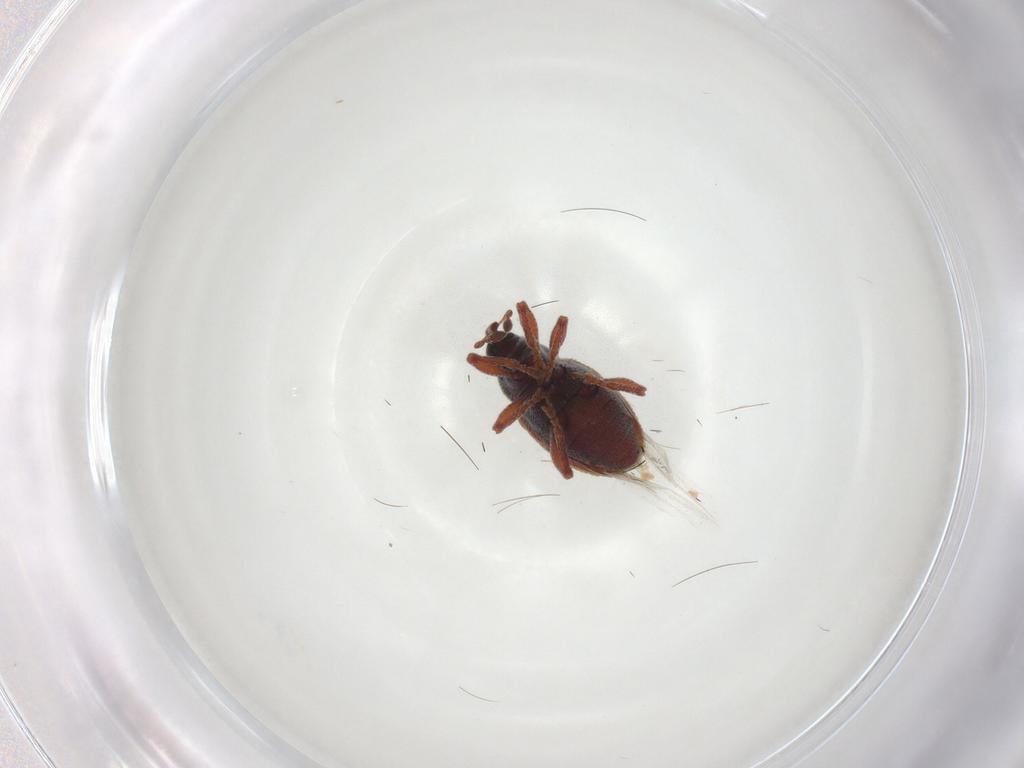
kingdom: Animalia
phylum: Arthropoda
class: Insecta
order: Coleoptera
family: Curculionidae
